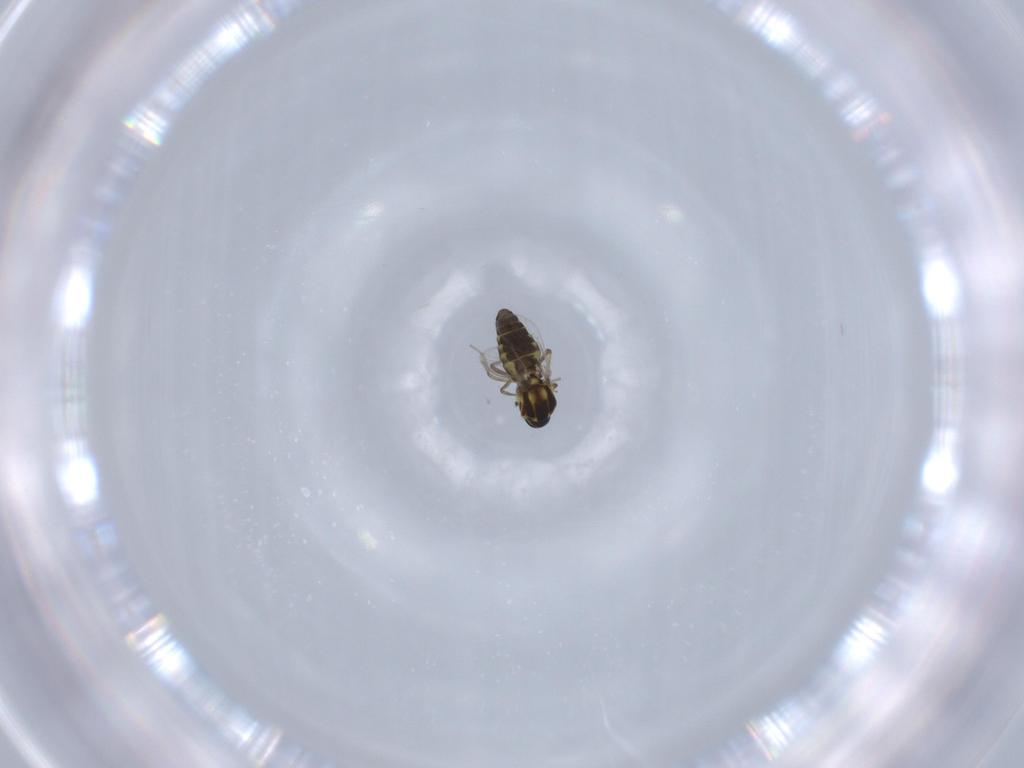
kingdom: Animalia
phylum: Arthropoda
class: Insecta
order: Diptera
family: Ceratopogonidae
